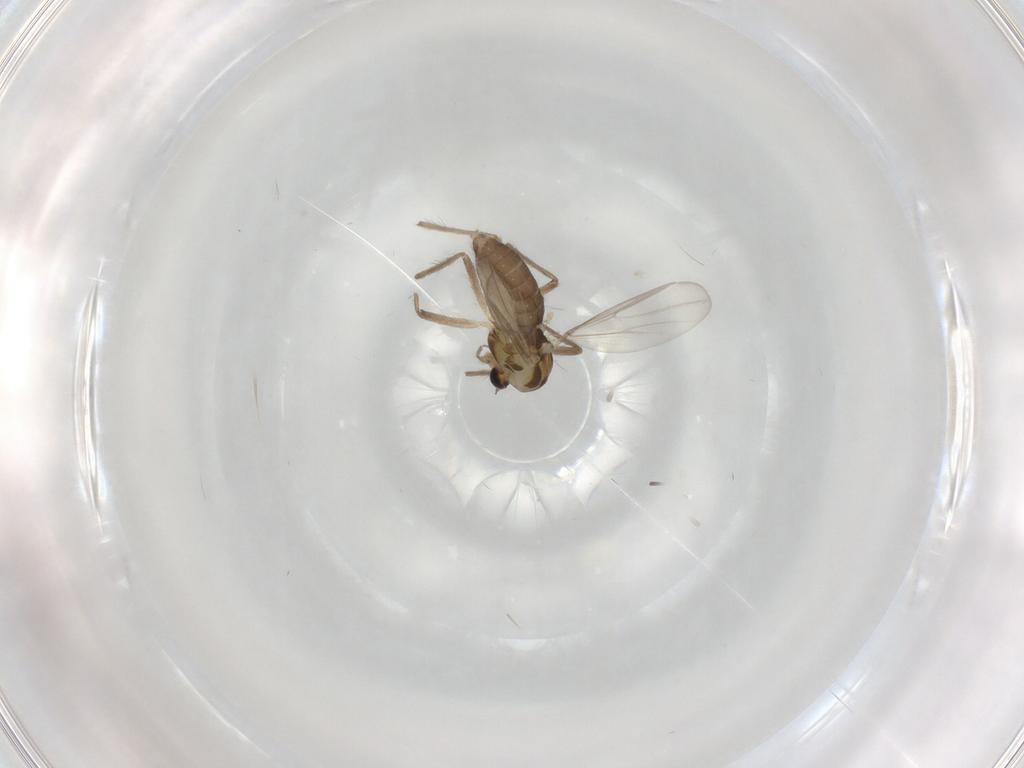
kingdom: Animalia
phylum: Arthropoda
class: Insecta
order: Diptera
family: Chironomidae
